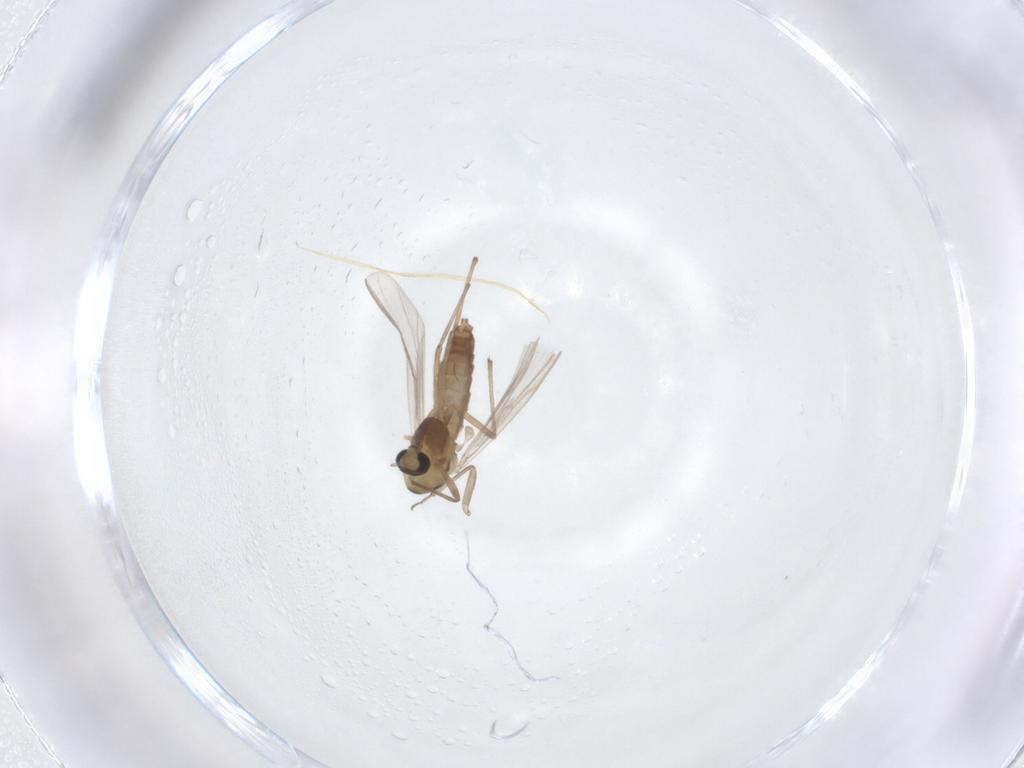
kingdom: Animalia
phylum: Arthropoda
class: Insecta
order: Diptera
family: Chironomidae
